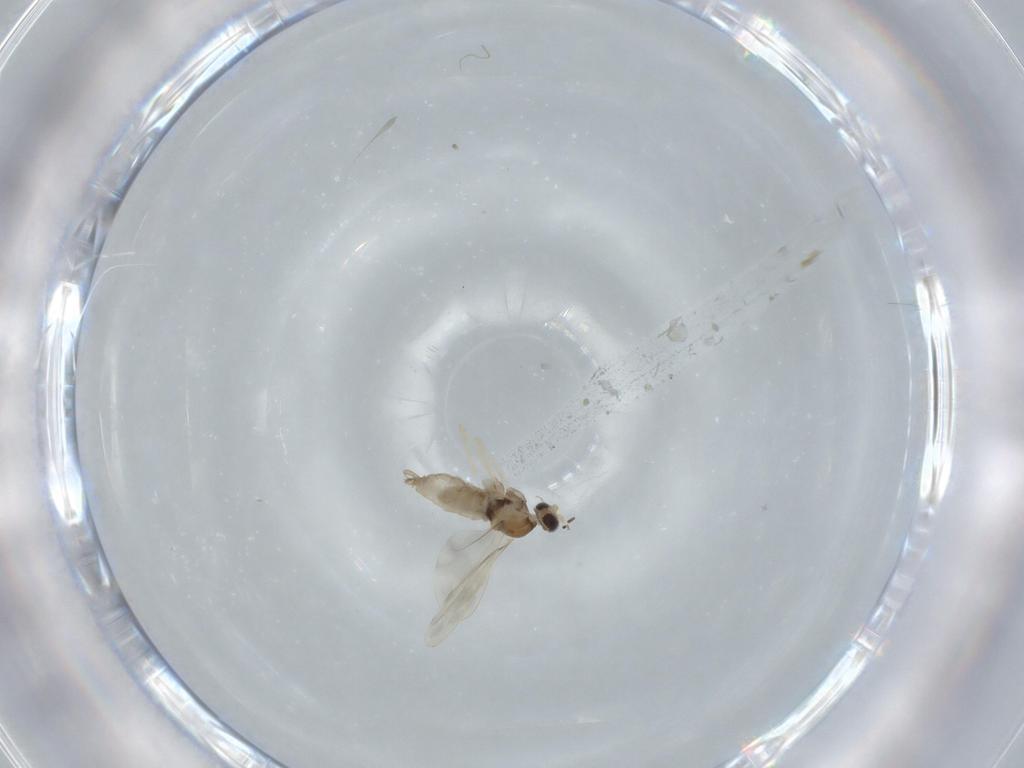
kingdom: Animalia
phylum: Arthropoda
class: Insecta
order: Diptera
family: Cecidomyiidae
